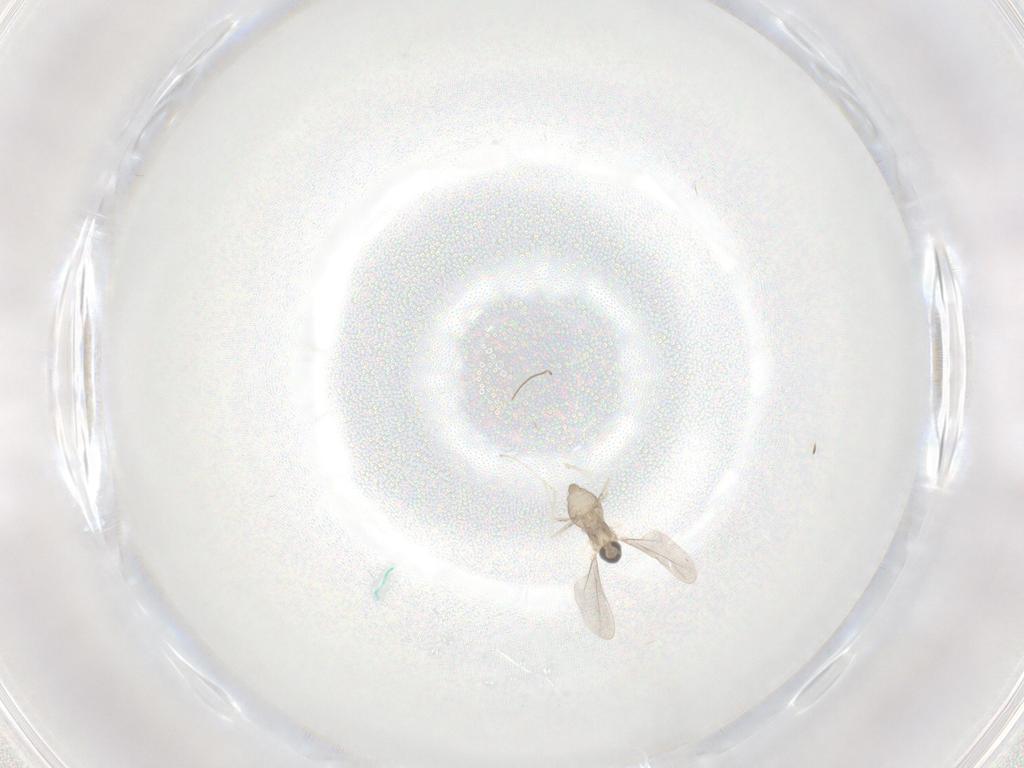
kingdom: Animalia
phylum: Arthropoda
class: Insecta
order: Diptera
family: Cecidomyiidae
